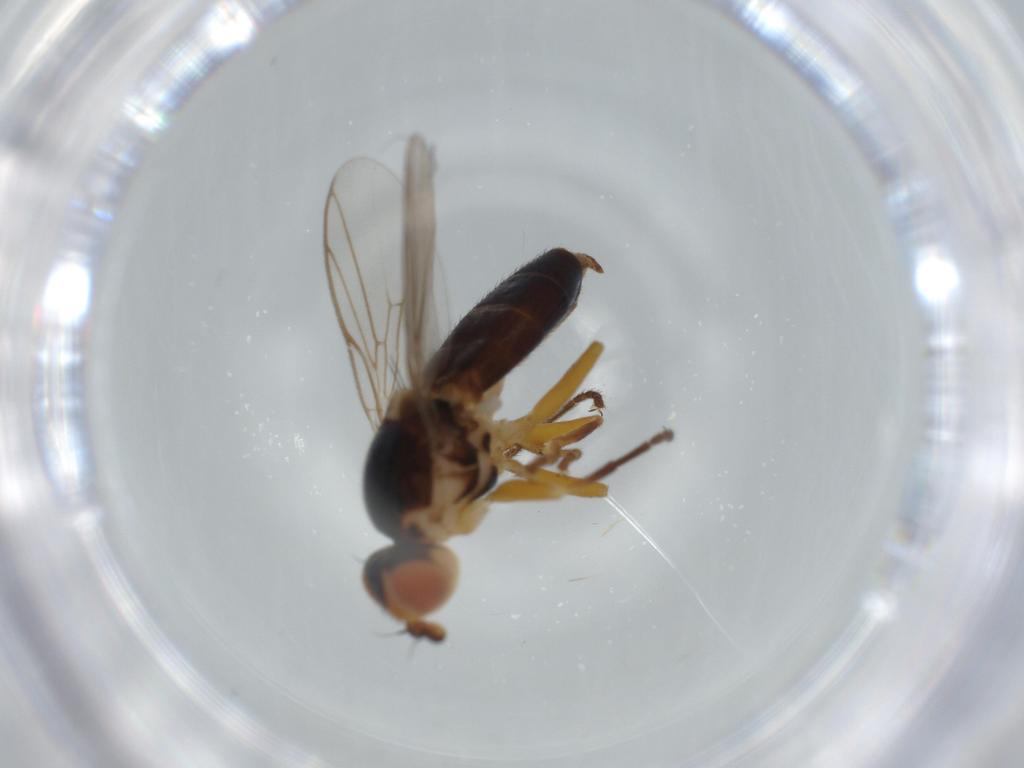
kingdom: Animalia
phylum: Arthropoda
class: Insecta
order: Diptera
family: Chloropidae
